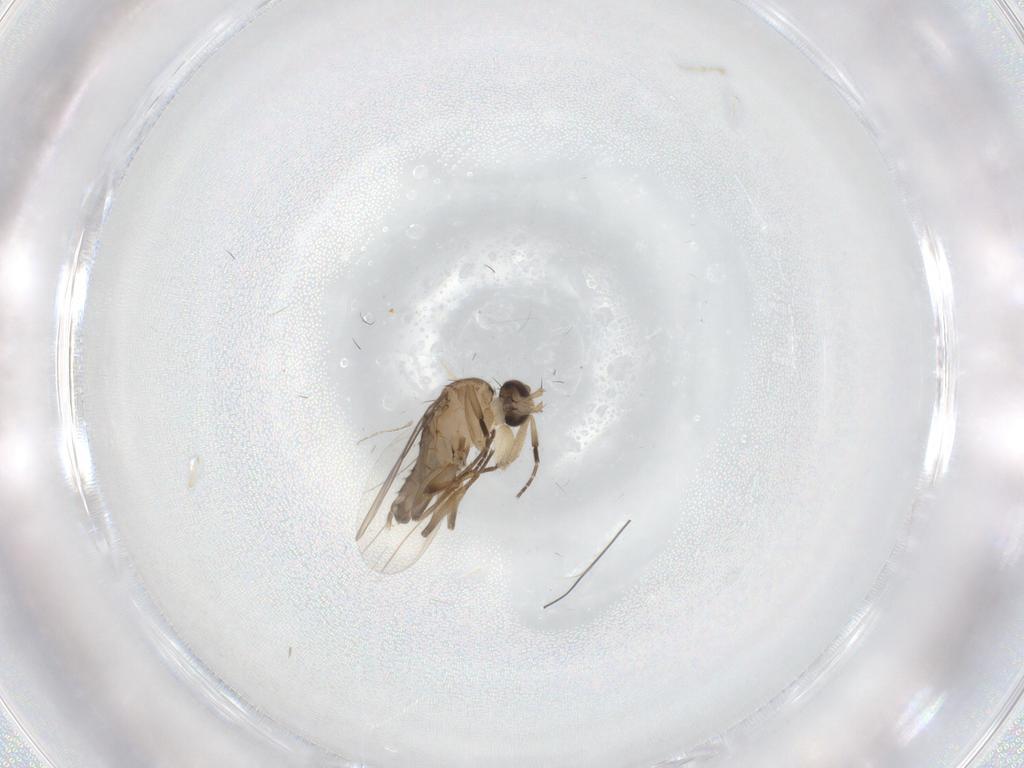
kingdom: Animalia
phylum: Arthropoda
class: Insecta
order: Diptera
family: Phoridae
